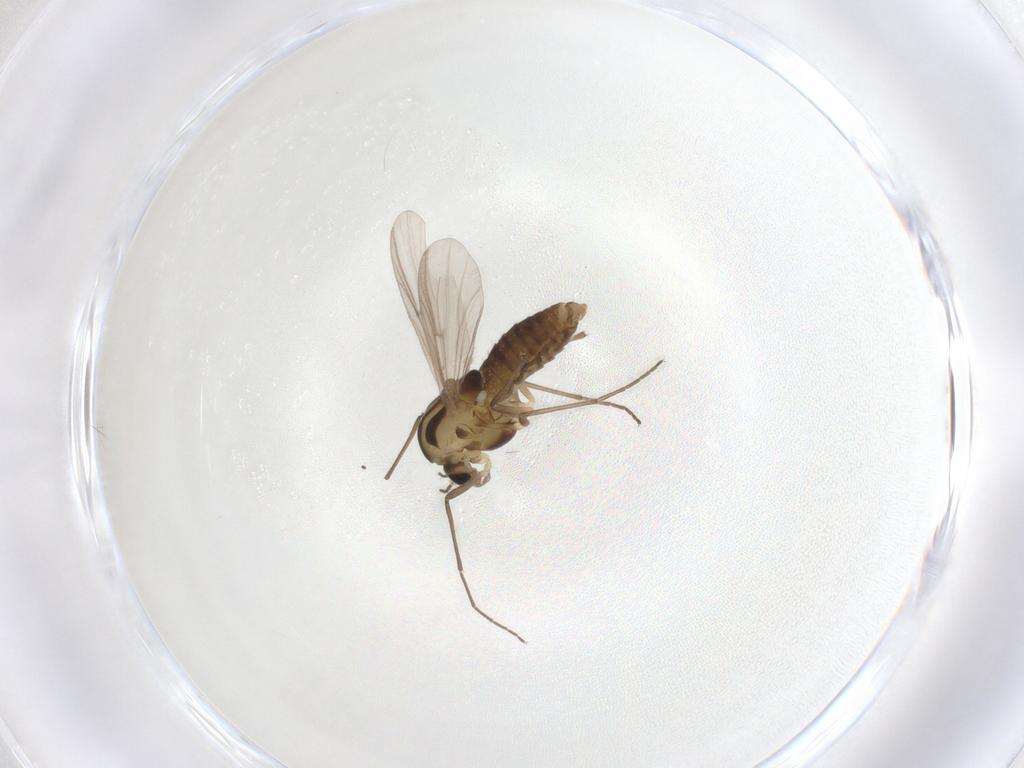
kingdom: Animalia
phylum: Arthropoda
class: Insecta
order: Diptera
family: Chironomidae
